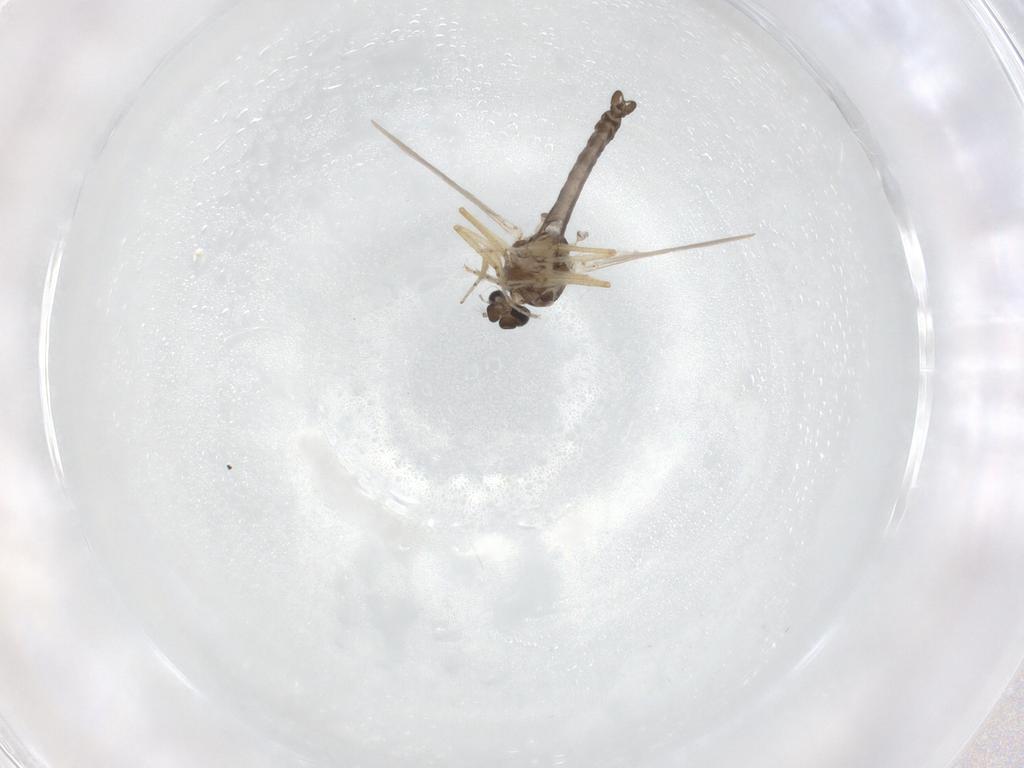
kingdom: Animalia
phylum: Arthropoda
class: Insecta
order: Diptera
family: Ceratopogonidae
